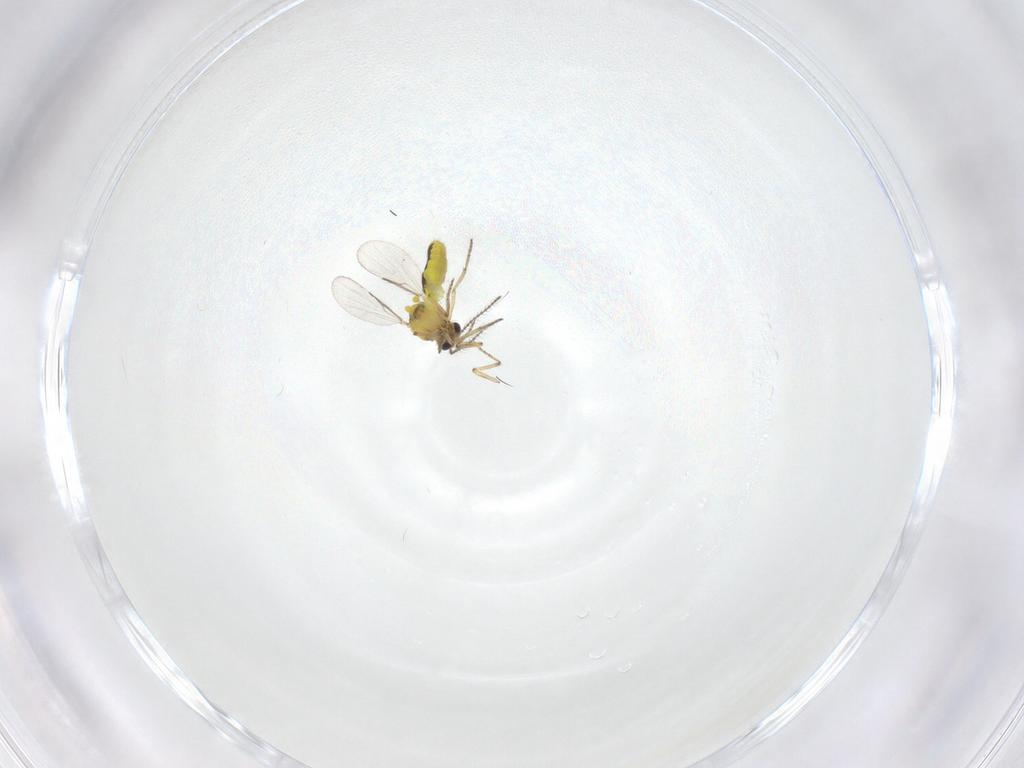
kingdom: Animalia
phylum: Arthropoda
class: Insecta
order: Diptera
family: Ceratopogonidae
